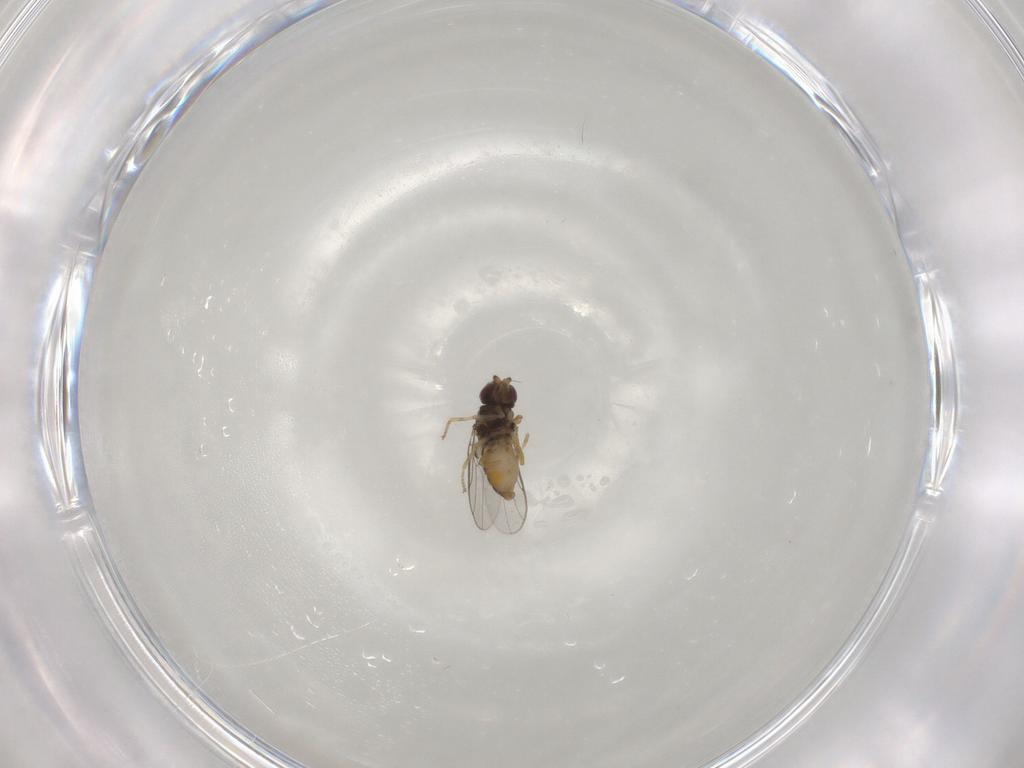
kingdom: Animalia
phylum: Arthropoda
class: Insecta
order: Diptera
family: Chloropidae
